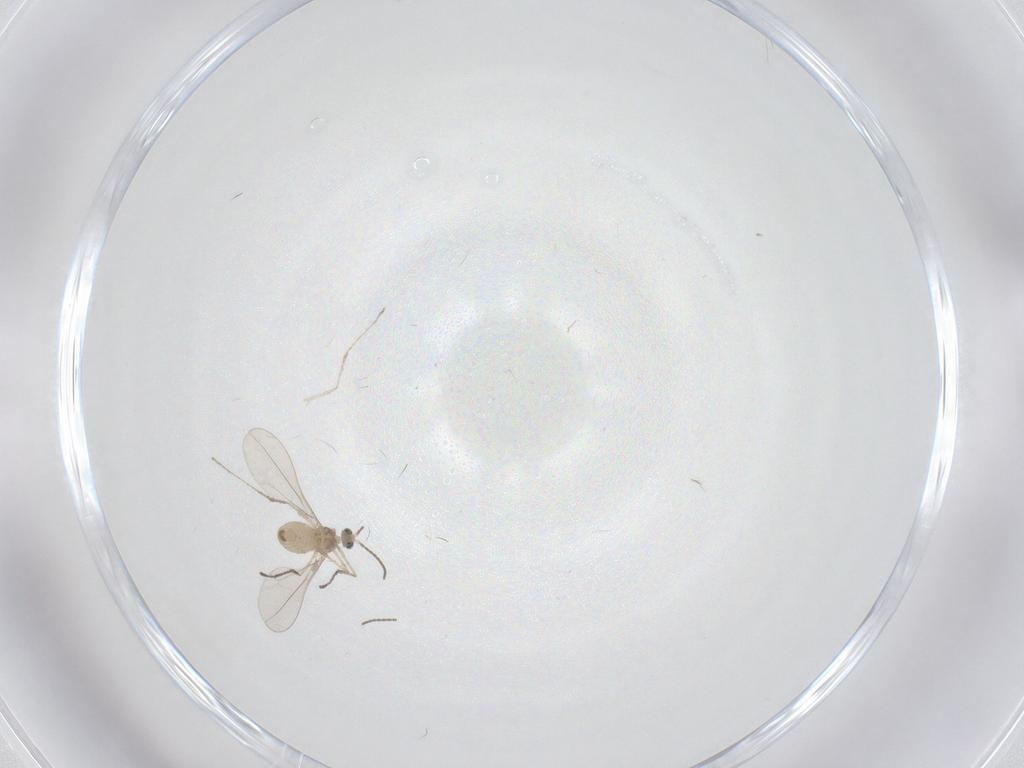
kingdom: Animalia
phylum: Arthropoda
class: Insecta
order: Diptera
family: Cecidomyiidae
